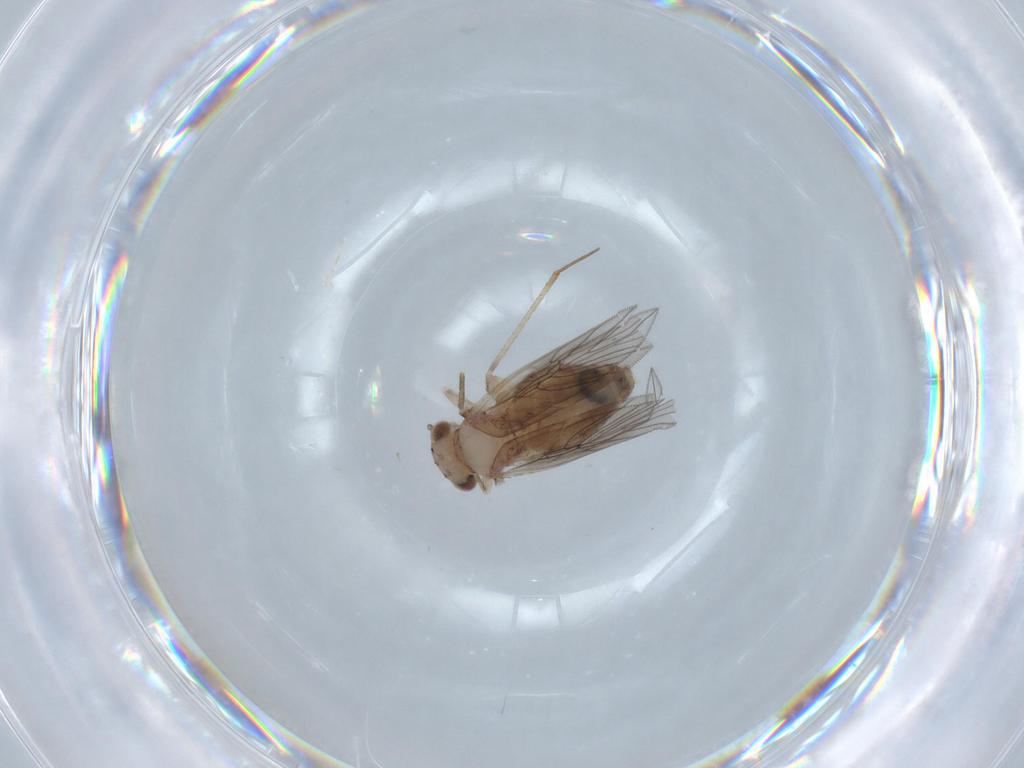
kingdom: Animalia
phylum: Arthropoda
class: Insecta
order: Psocodea
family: Lepidopsocidae
